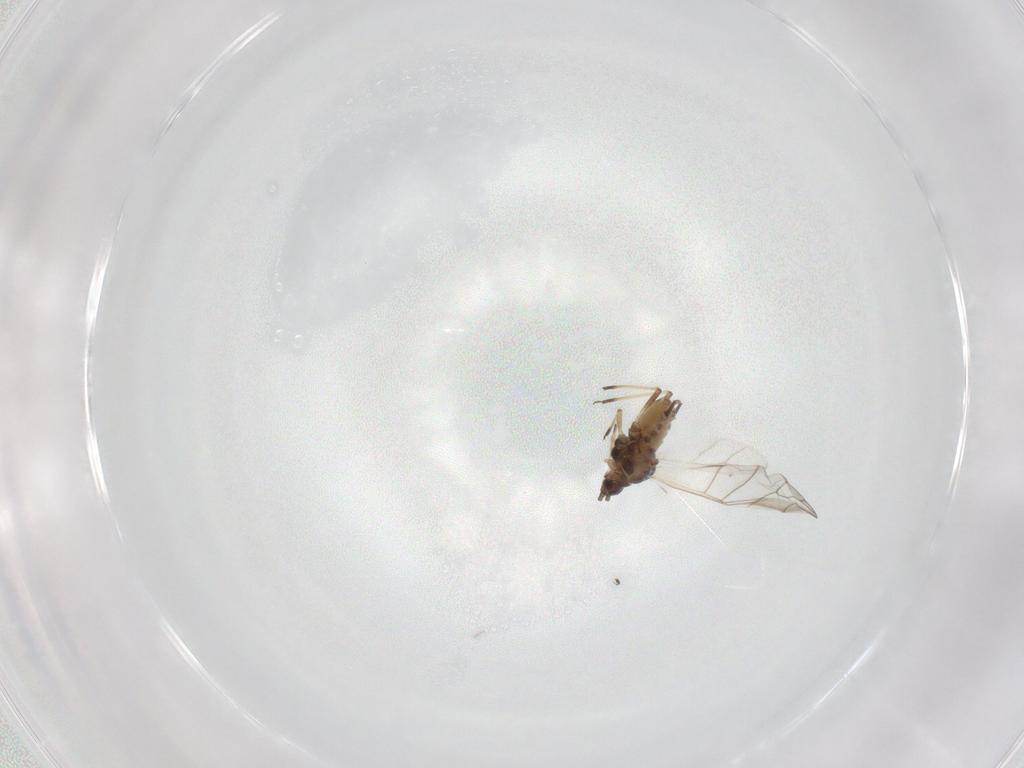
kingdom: Animalia
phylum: Arthropoda
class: Insecta
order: Hemiptera
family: Aphididae
